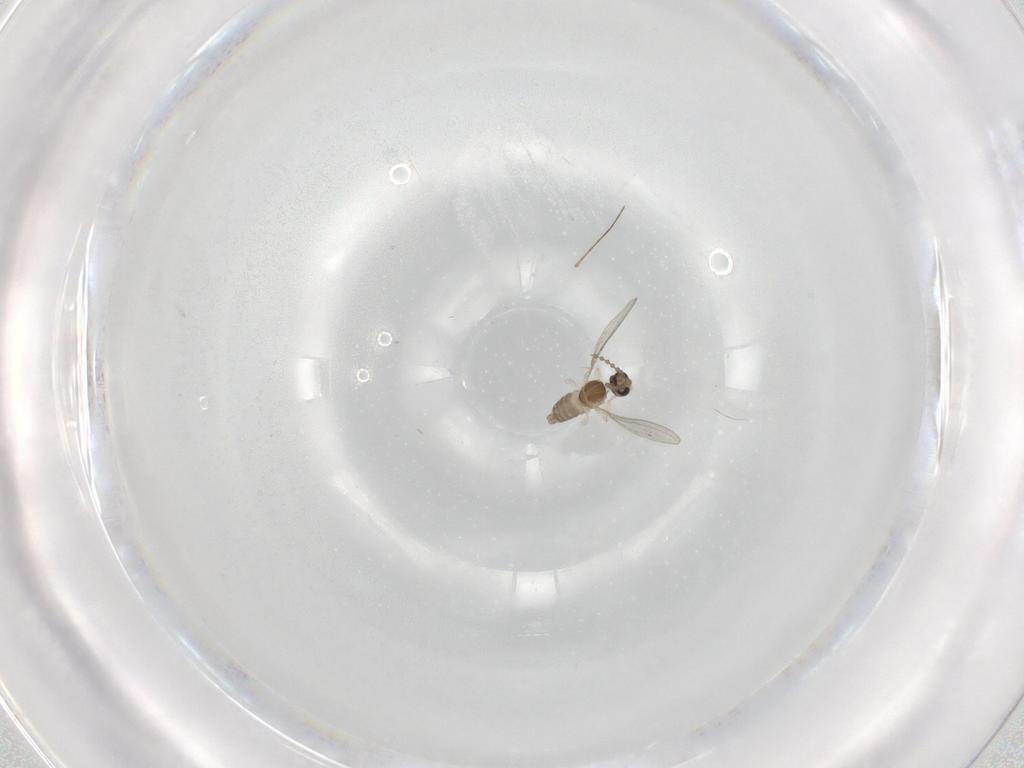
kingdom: Animalia
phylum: Arthropoda
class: Insecta
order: Diptera
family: Cecidomyiidae
